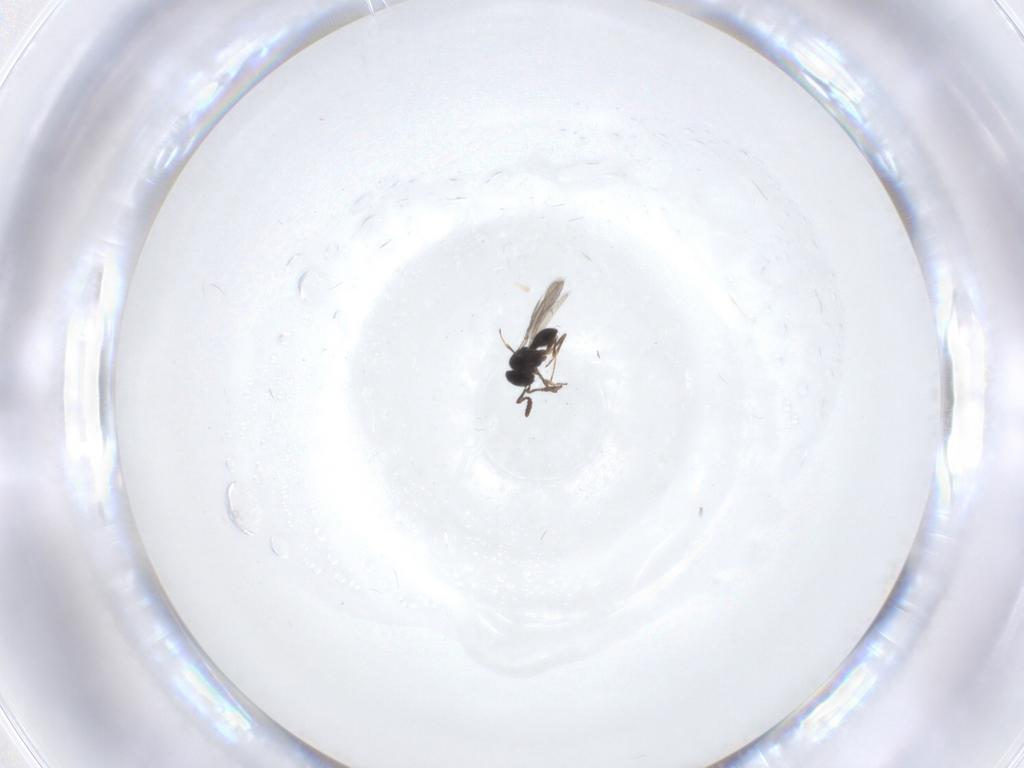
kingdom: Animalia
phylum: Arthropoda
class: Insecta
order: Hymenoptera
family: Scelionidae
